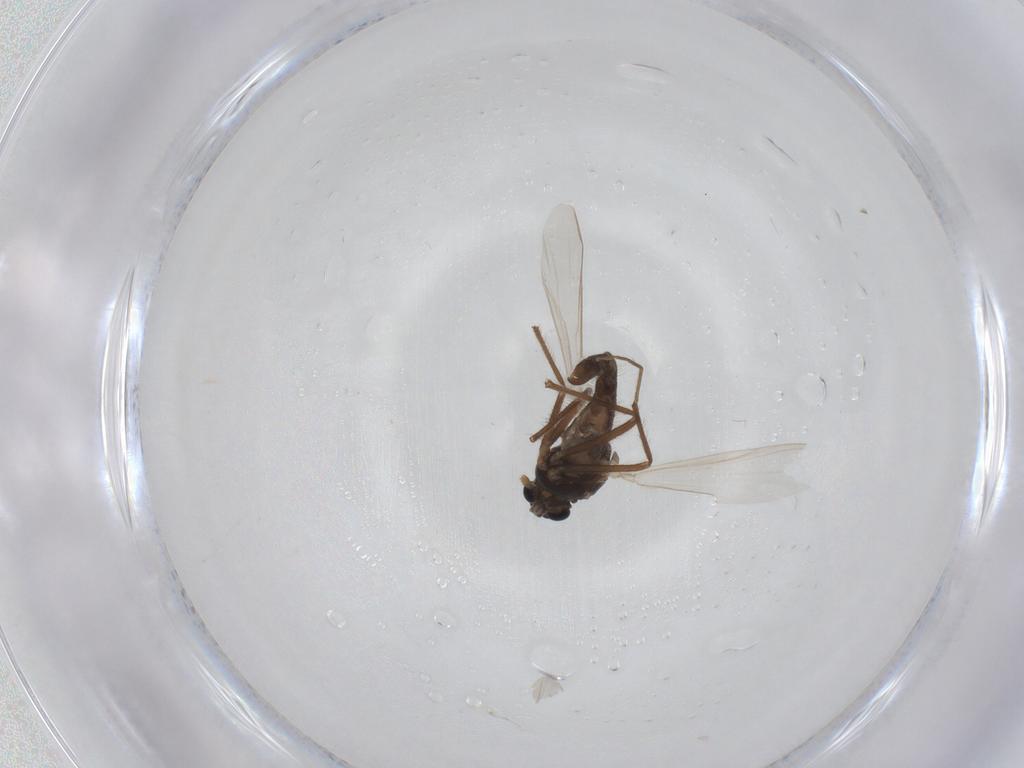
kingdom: Animalia
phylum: Arthropoda
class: Insecta
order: Diptera
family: Chironomidae
